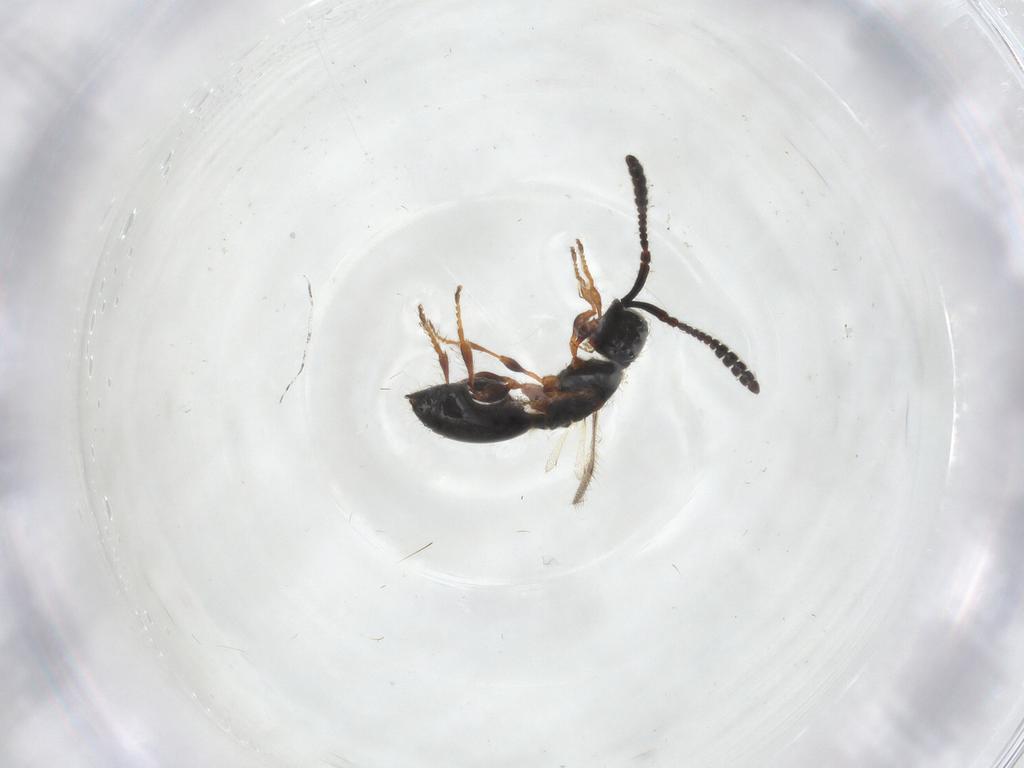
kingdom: Animalia
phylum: Arthropoda
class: Insecta
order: Hymenoptera
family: Diapriidae
